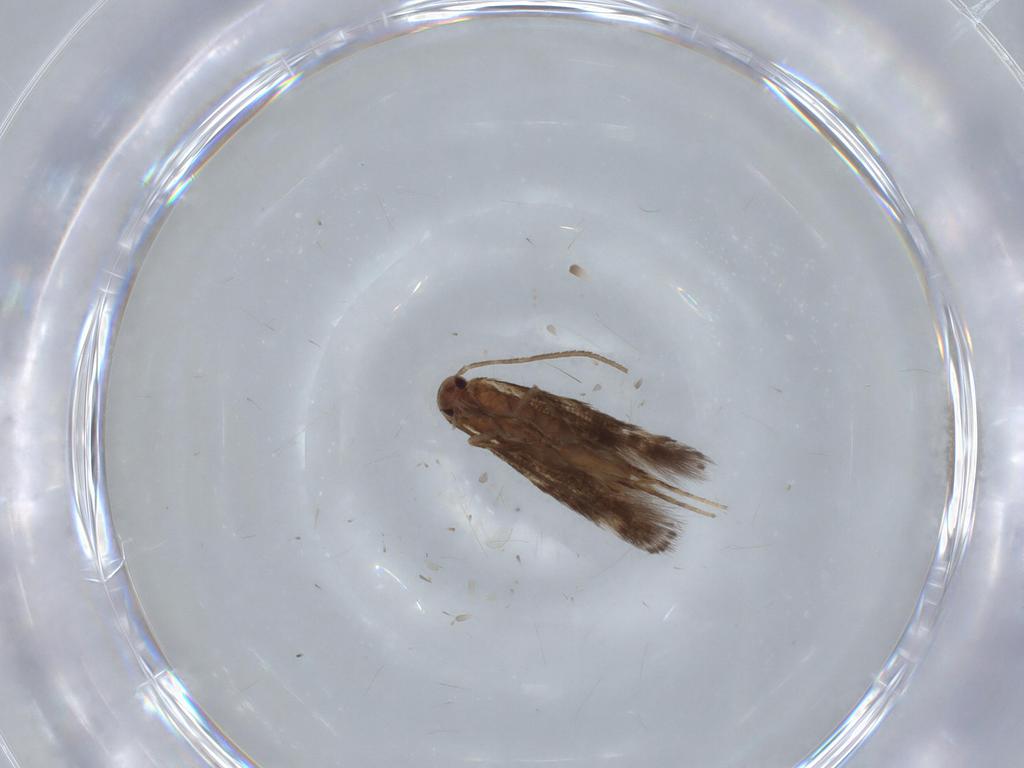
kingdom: Animalia
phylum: Arthropoda
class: Insecta
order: Lepidoptera
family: Elachistidae
